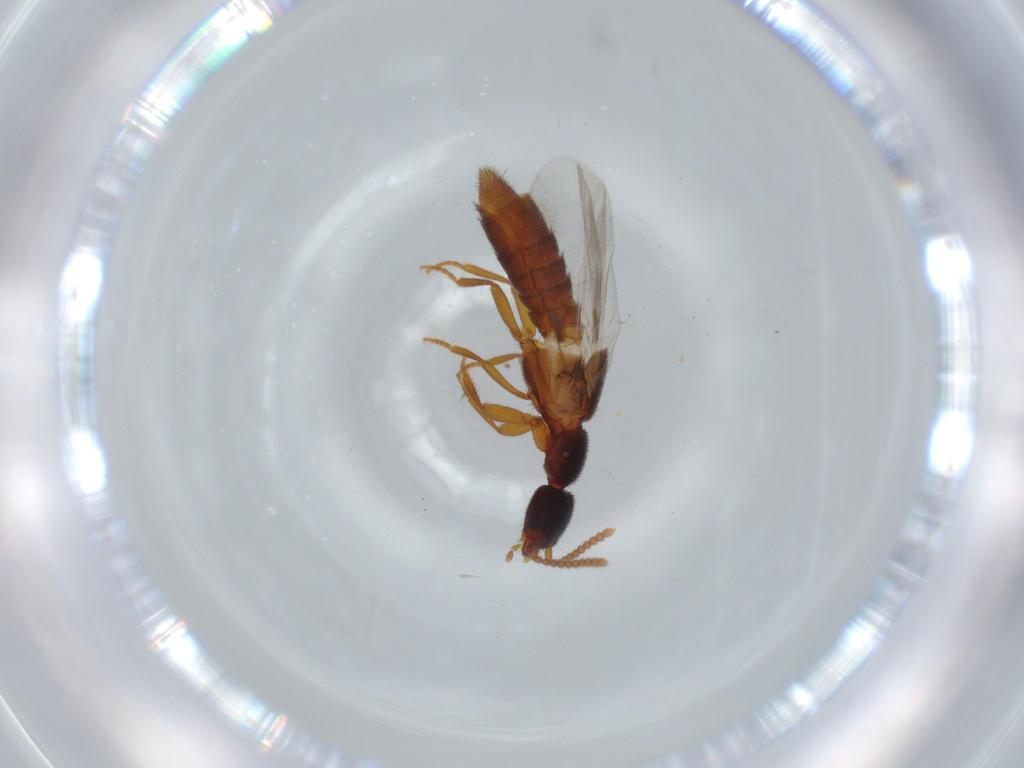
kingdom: Animalia
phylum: Arthropoda
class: Insecta
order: Coleoptera
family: Staphylinidae
